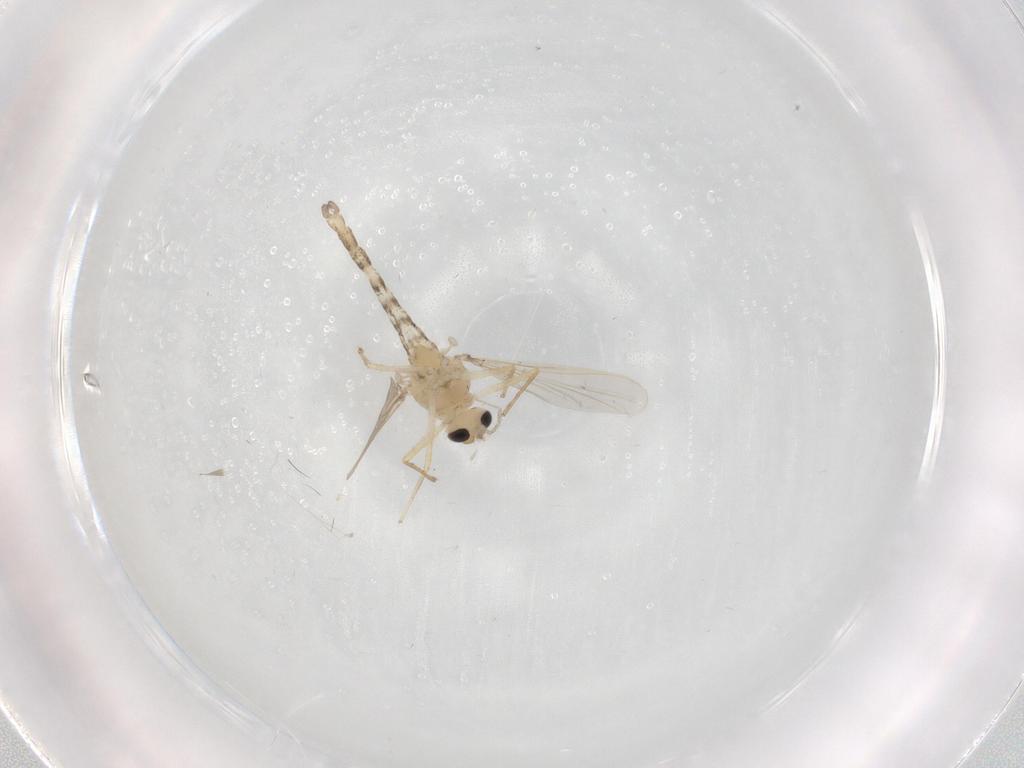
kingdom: Animalia
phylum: Arthropoda
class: Insecta
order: Diptera
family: Chironomidae
